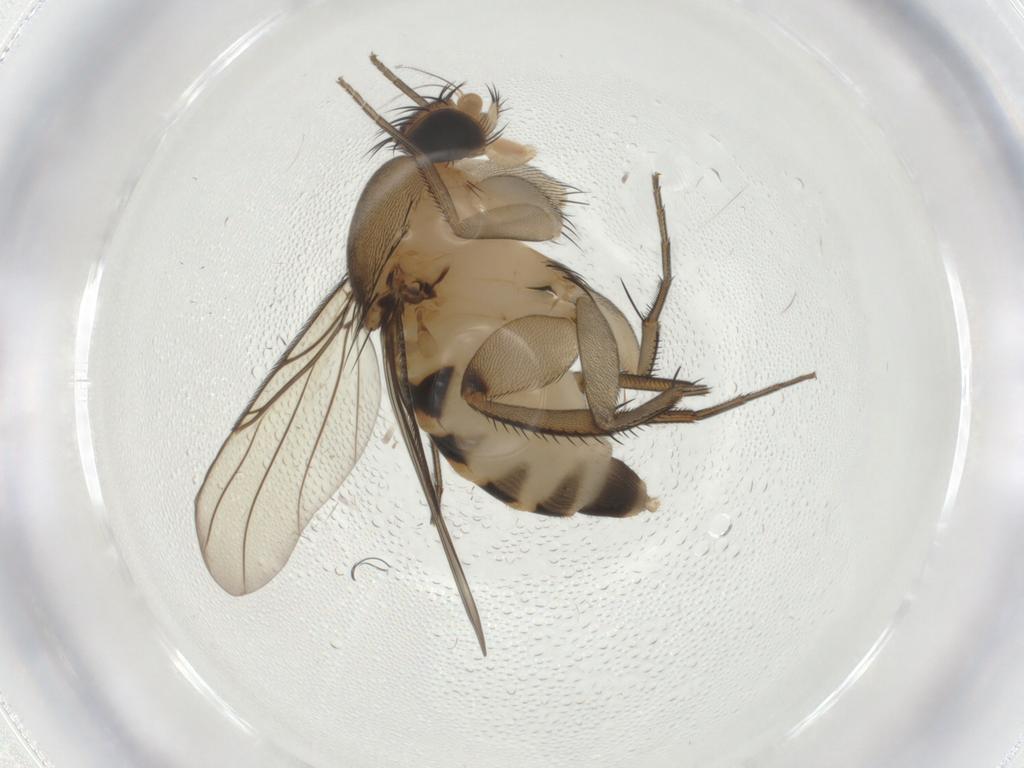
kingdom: Animalia
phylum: Arthropoda
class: Insecta
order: Diptera
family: Phoridae
